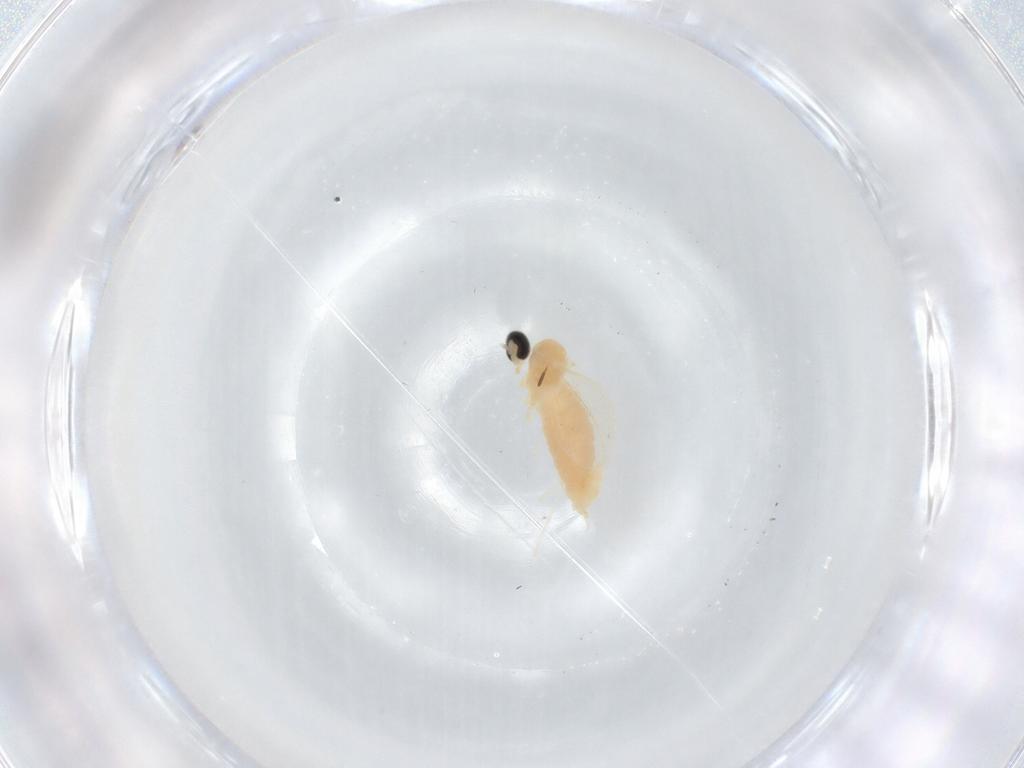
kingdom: Animalia
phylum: Arthropoda
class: Insecta
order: Diptera
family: Cecidomyiidae
